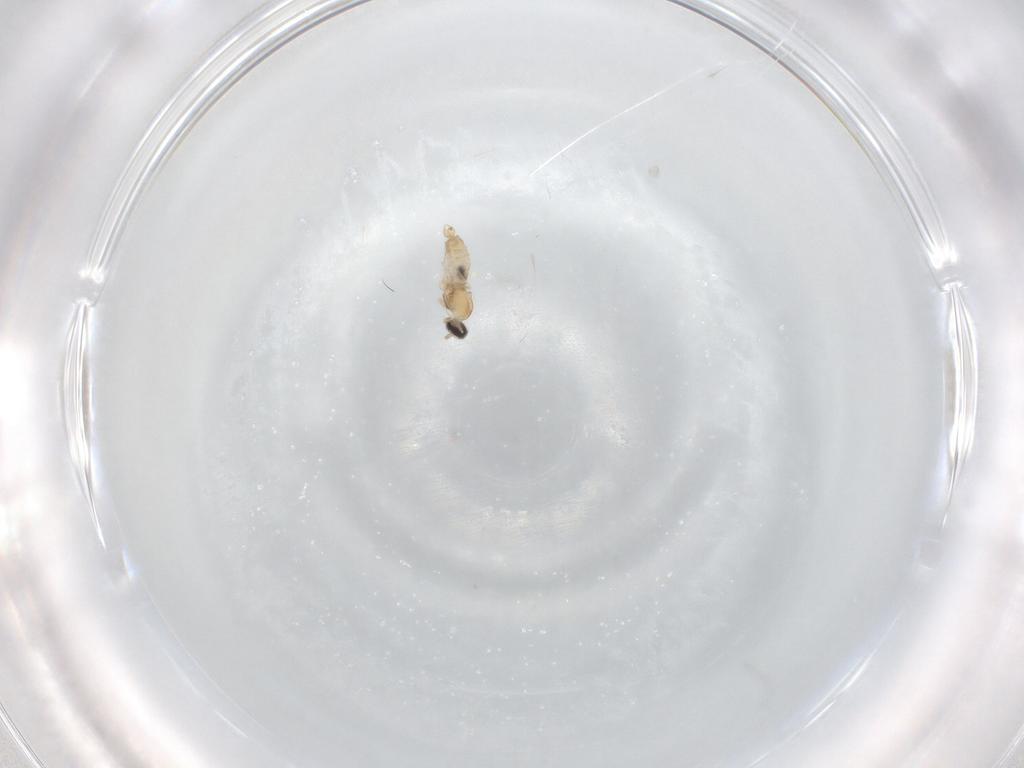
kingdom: Animalia
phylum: Arthropoda
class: Insecta
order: Diptera
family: Cecidomyiidae
